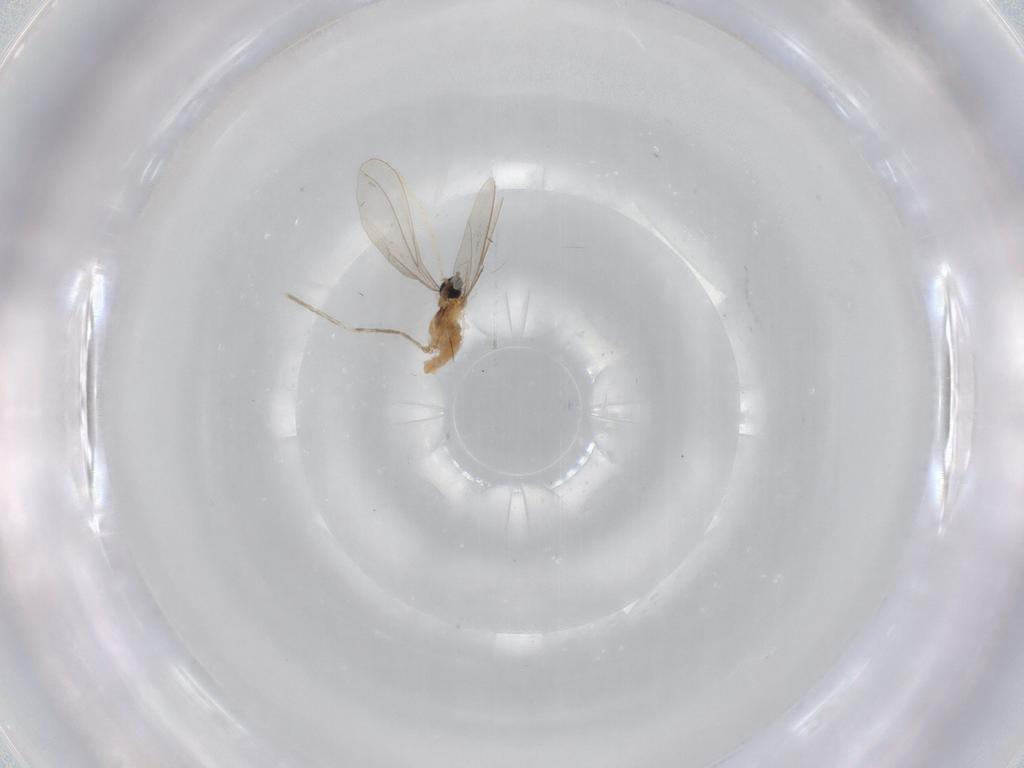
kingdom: Animalia
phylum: Arthropoda
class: Insecta
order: Diptera
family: Cecidomyiidae
